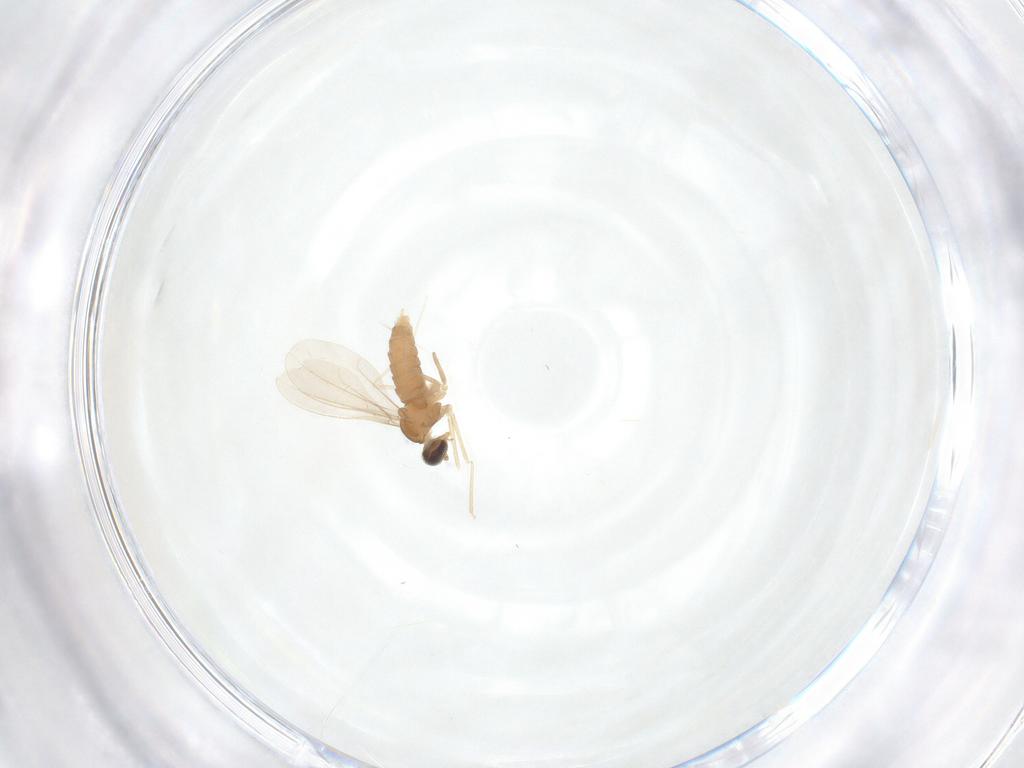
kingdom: Animalia
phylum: Arthropoda
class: Insecta
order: Diptera
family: Cecidomyiidae
